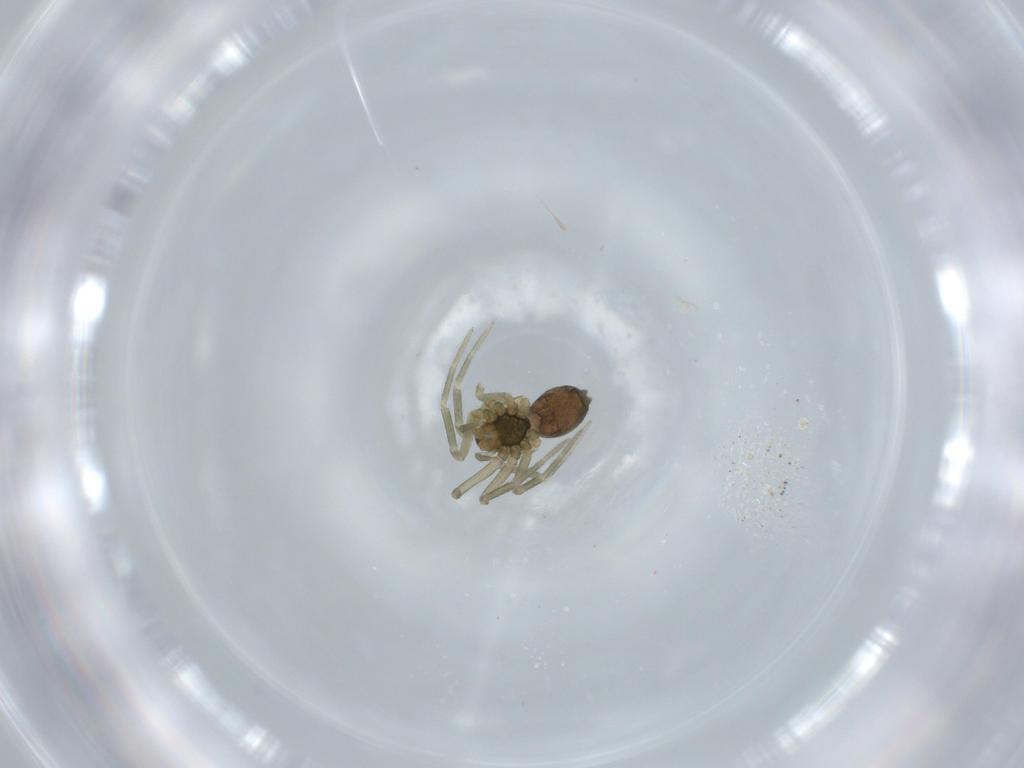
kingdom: Animalia
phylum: Arthropoda
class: Arachnida
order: Araneae
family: Linyphiidae
